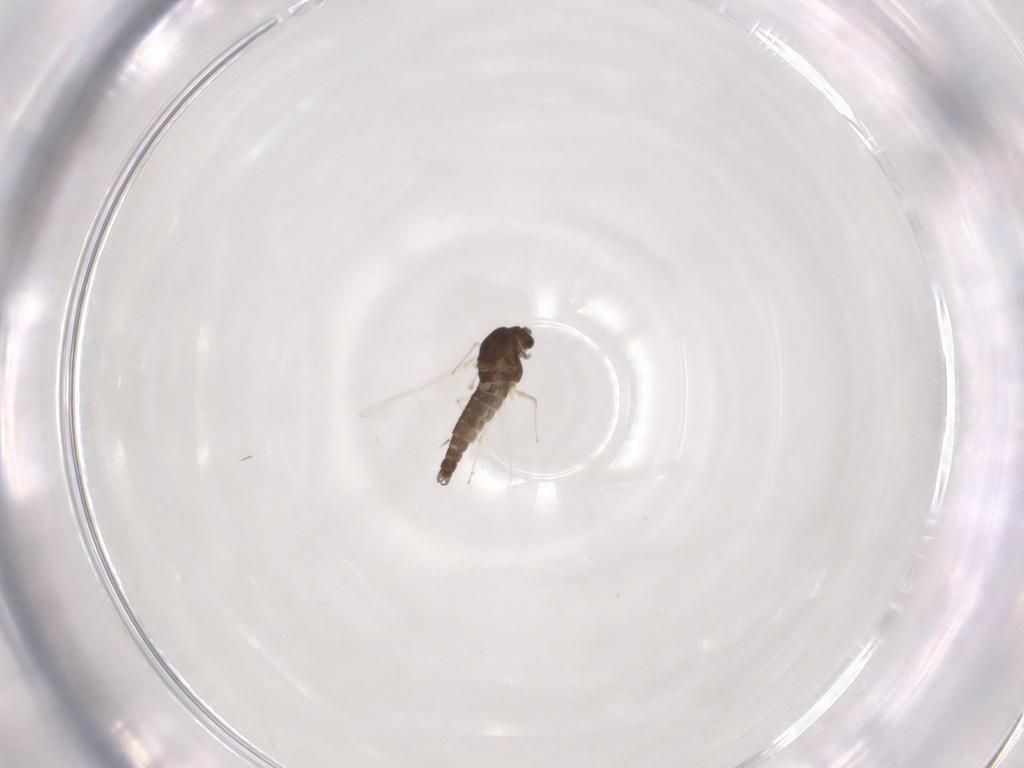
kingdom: Animalia
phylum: Arthropoda
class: Insecta
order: Diptera
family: Chironomidae
